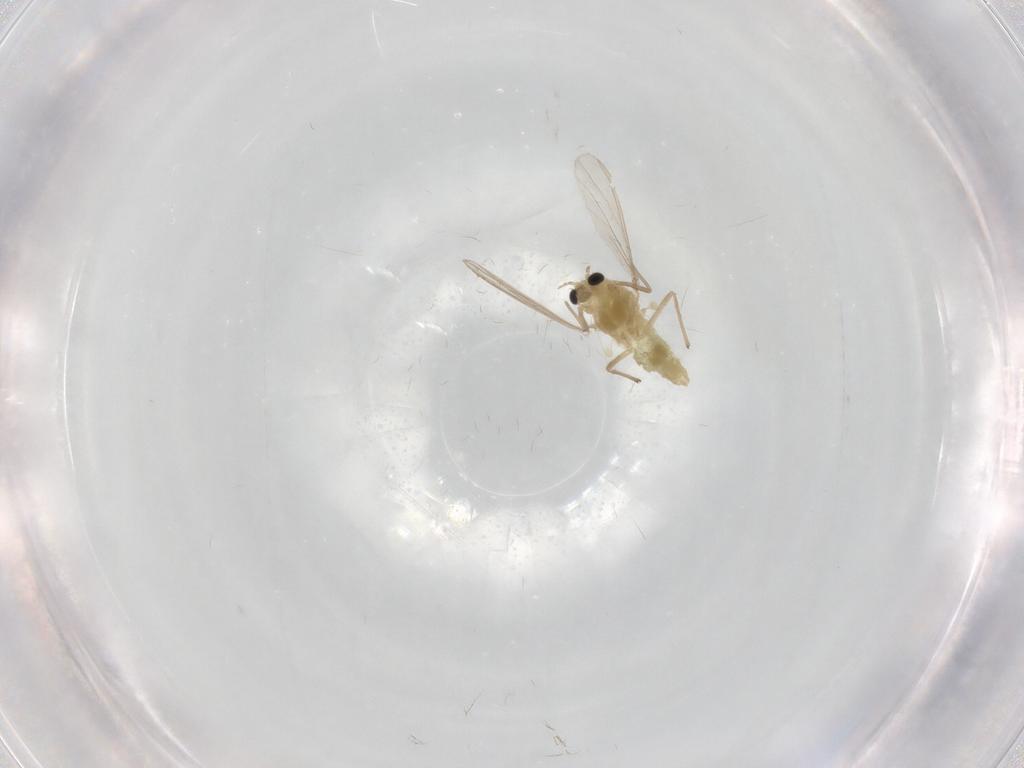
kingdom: Animalia
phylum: Arthropoda
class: Insecta
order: Diptera
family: Chironomidae
